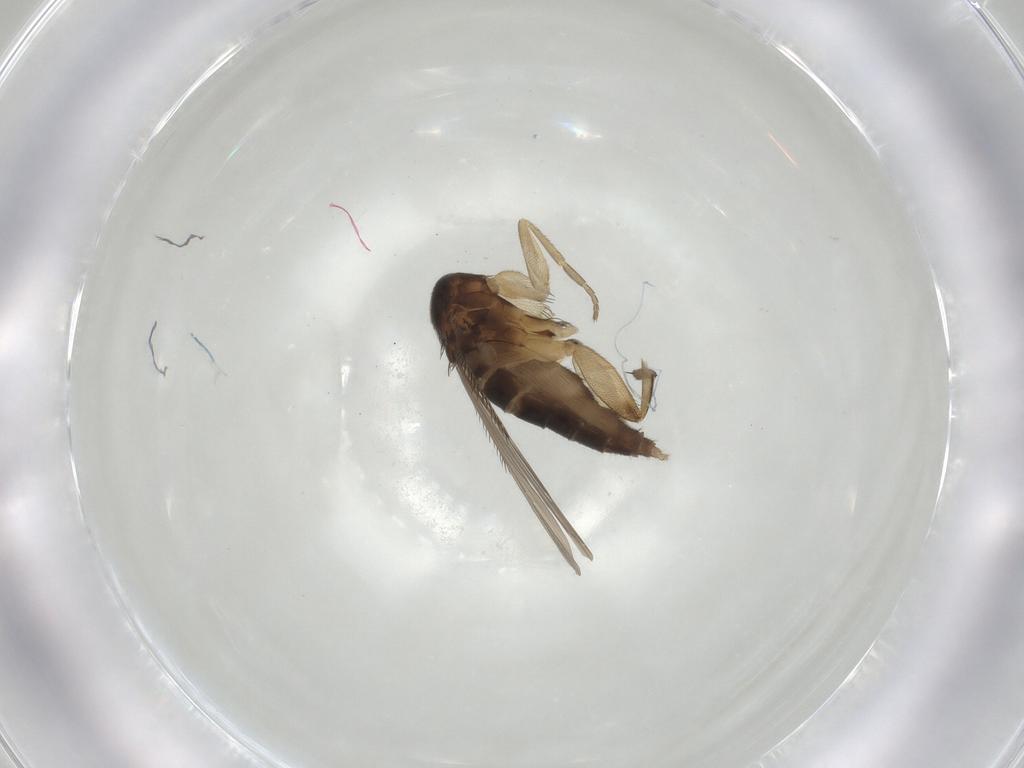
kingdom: Animalia
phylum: Arthropoda
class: Insecta
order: Diptera
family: Phoridae
